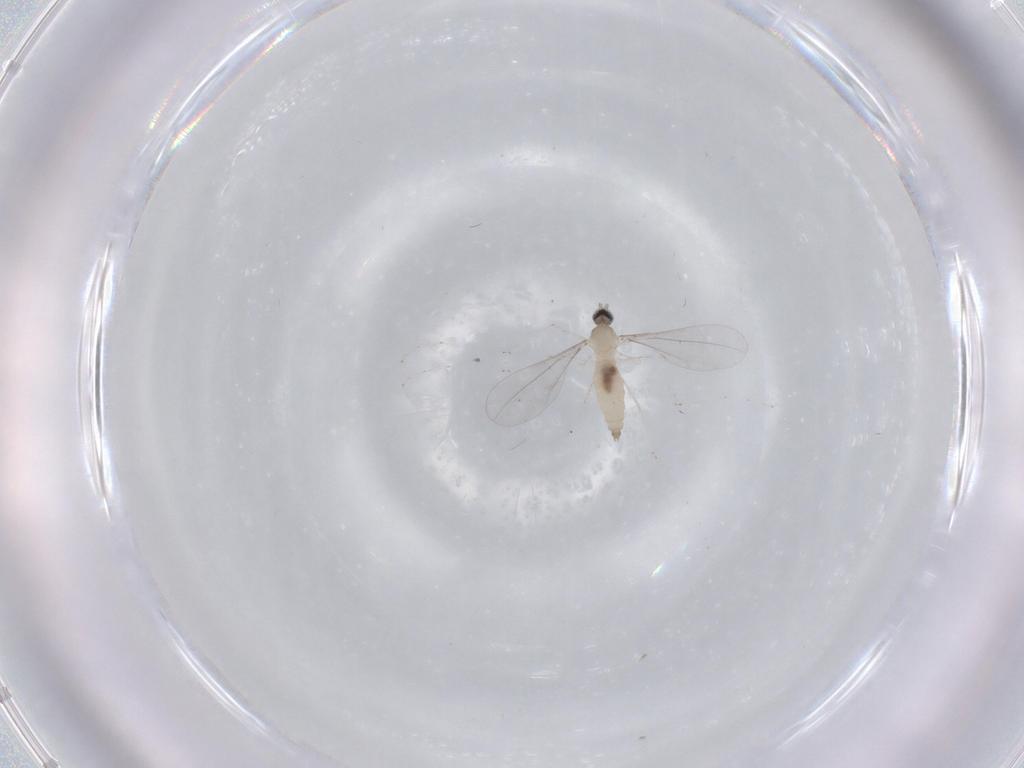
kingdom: Animalia
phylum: Arthropoda
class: Insecta
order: Diptera
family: Cecidomyiidae
